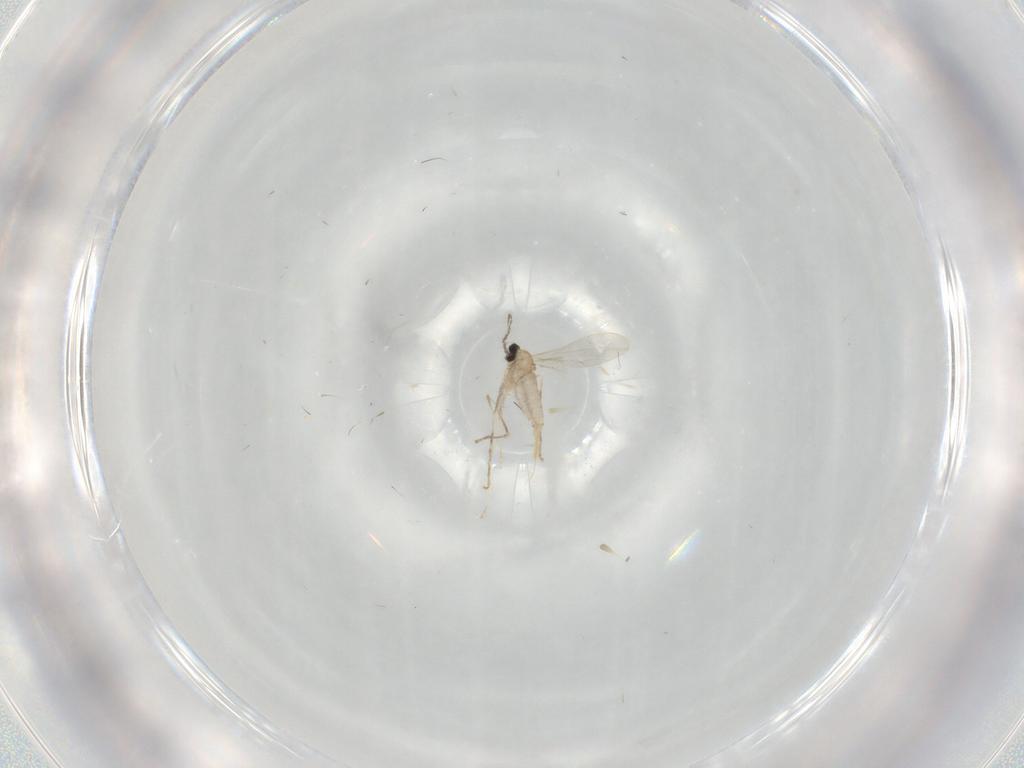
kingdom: Animalia
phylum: Arthropoda
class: Insecta
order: Diptera
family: Cecidomyiidae
